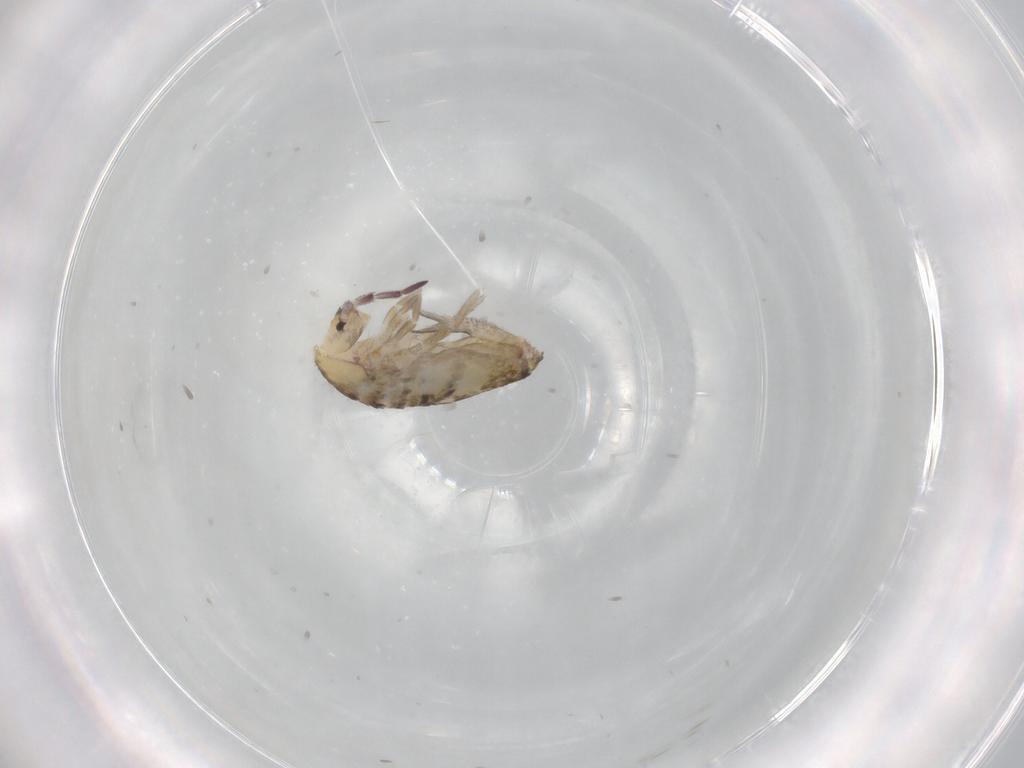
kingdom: Animalia
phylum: Arthropoda
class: Collembola
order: Entomobryomorpha
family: Entomobryidae
